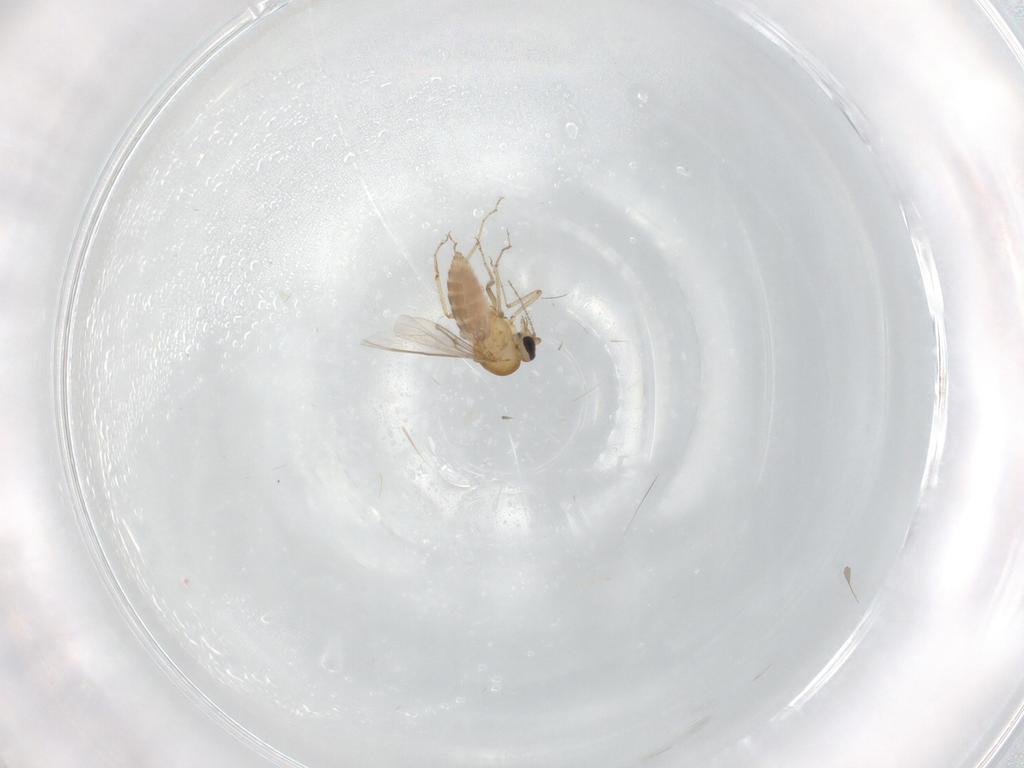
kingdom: Animalia
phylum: Arthropoda
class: Insecta
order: Diptera
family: Ceratopogonidae
